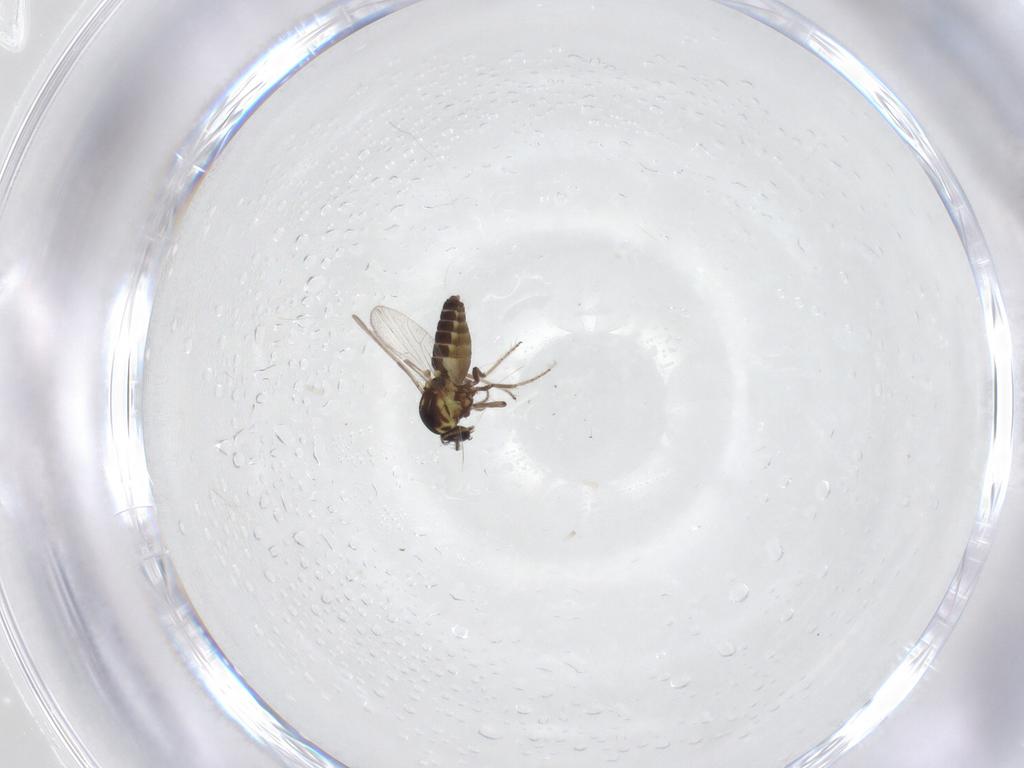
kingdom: Animalia
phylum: Arthropoda
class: Insecta
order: Diptera
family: Ceratopogonidae
